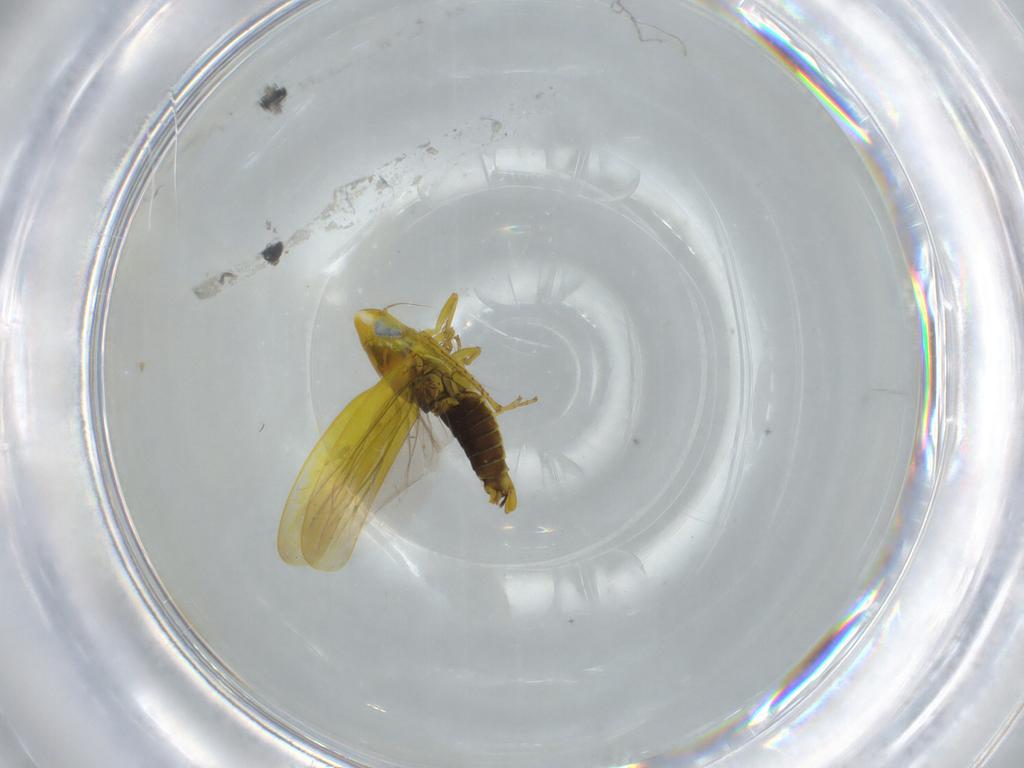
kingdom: Animalia
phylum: Arthropoda
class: Insecta
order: Hemiptera
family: Cicadellidae
